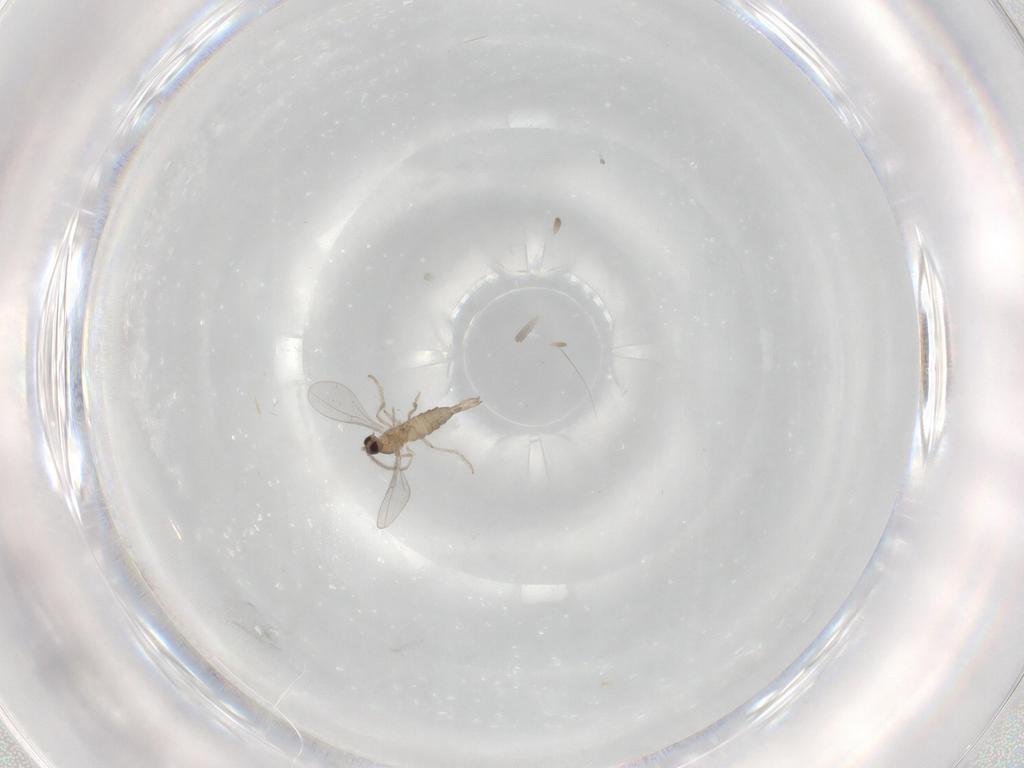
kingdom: Animalia
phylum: Arthropoda
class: Insecta
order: Diptera
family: Cecidomyiidae
